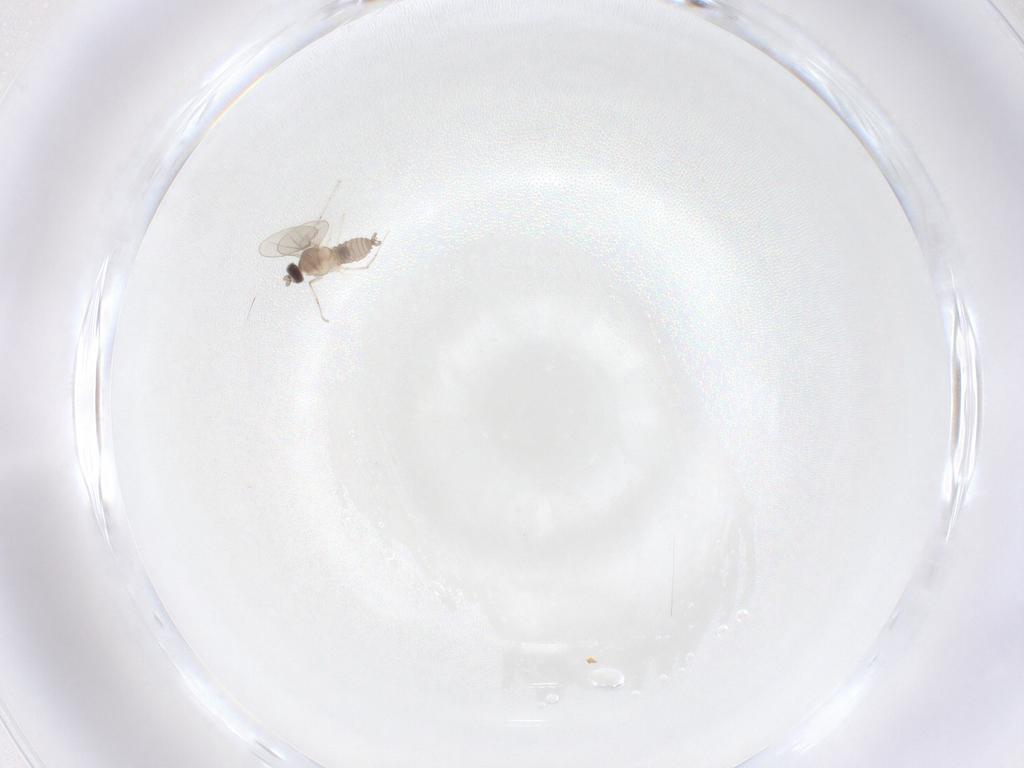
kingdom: Animalia
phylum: Arthropoda
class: Insecta
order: Diptera
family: Cecidomyiidae
